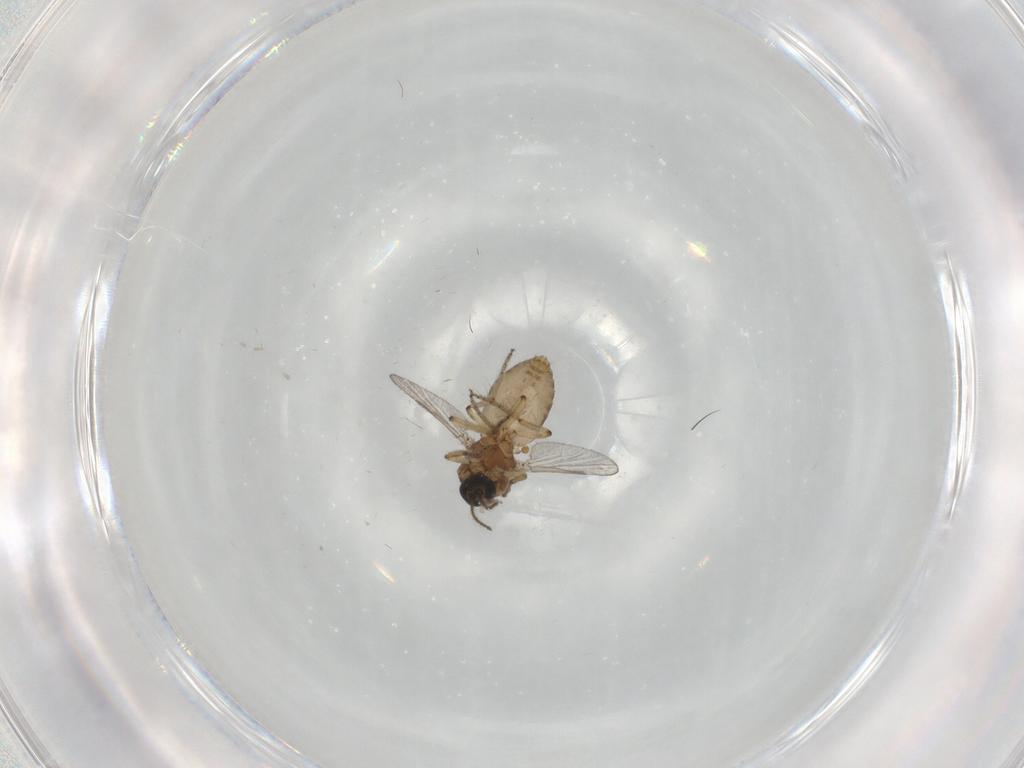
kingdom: Animalia
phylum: Arthropoda
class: Insecta
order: Diptera
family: Ceratopogonidae
